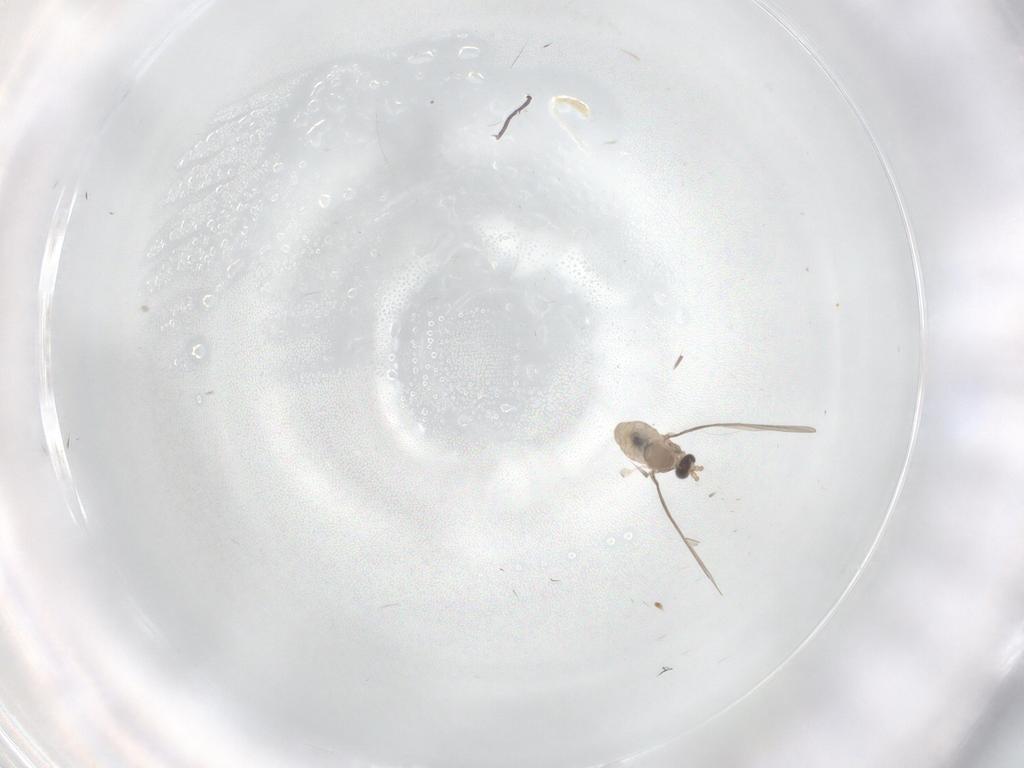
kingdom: Animalia
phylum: Arthropoda
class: Insecta
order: Diptera
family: Cecidomyiidae
